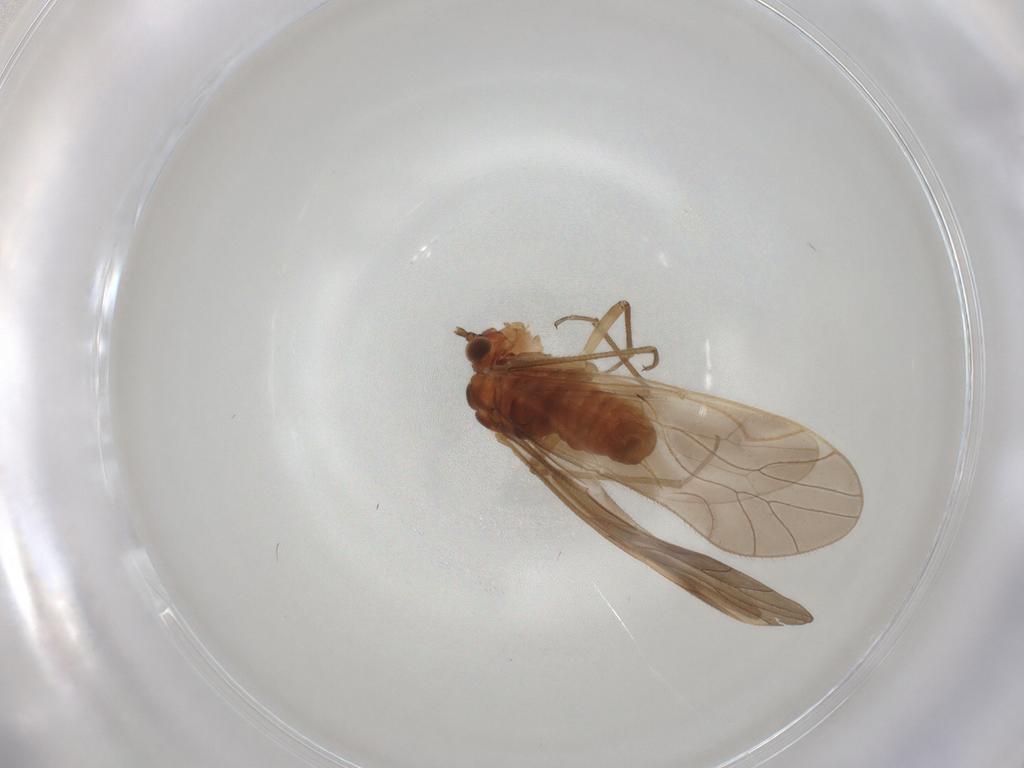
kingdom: Animalia
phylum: Arthropoda
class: Insecta
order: Psocodea
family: Caeciliusidae
